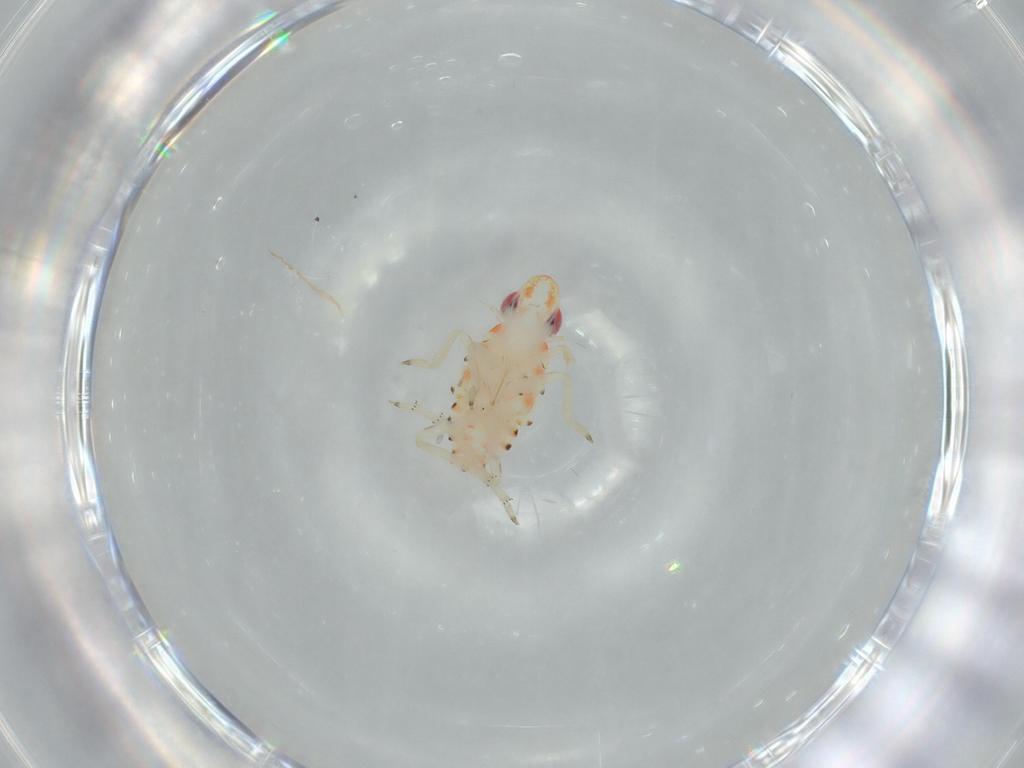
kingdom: Animalia
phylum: Arthropoda
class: Insecta
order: Hemiptera
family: Tropiduchidae
